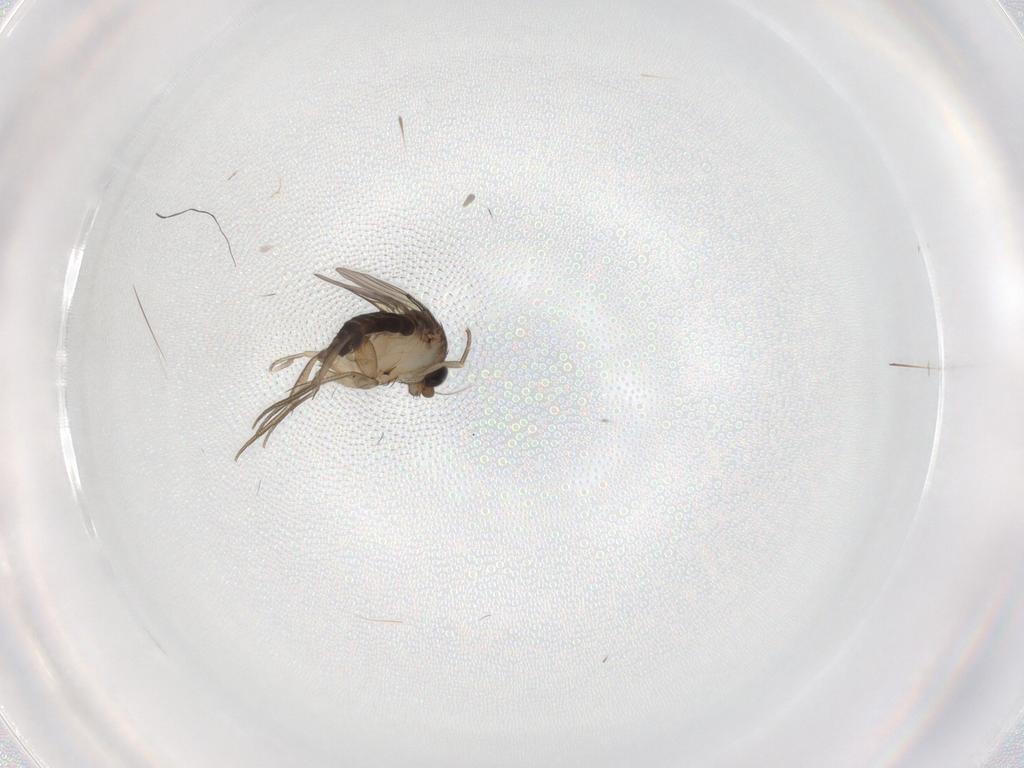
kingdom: Animalia
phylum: Arthropoda
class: Insecta
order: Diptera
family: Phoridae
